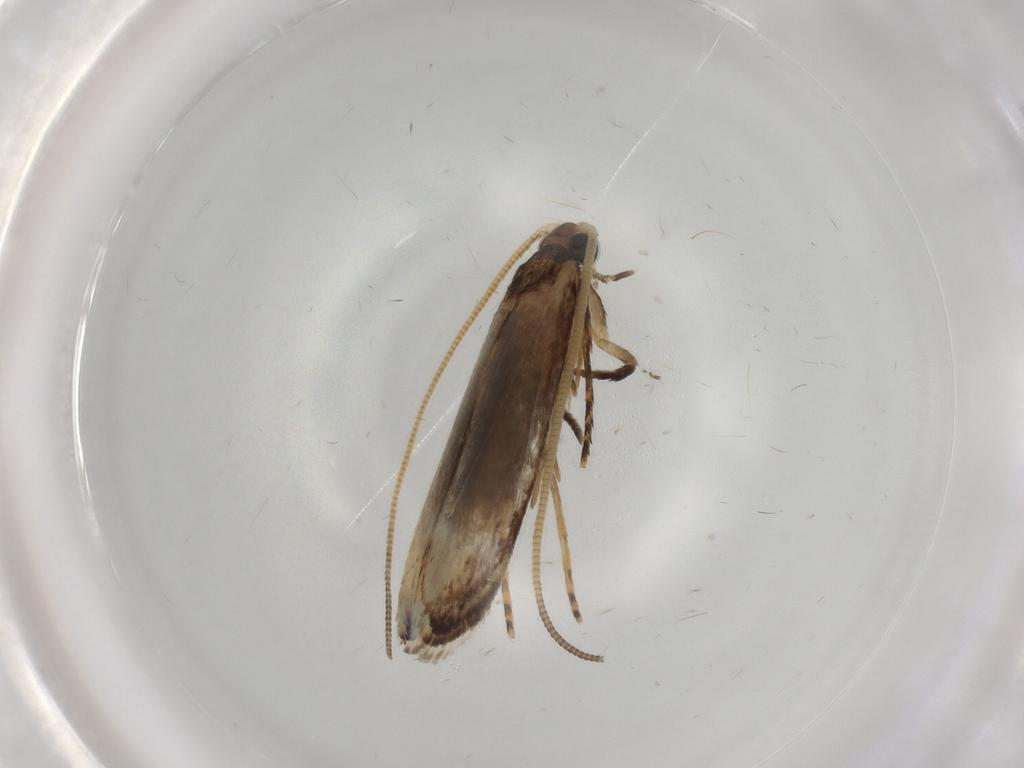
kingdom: Animalia
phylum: Arthropoda
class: Insecta
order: Lepidoptera
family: Tineidae
